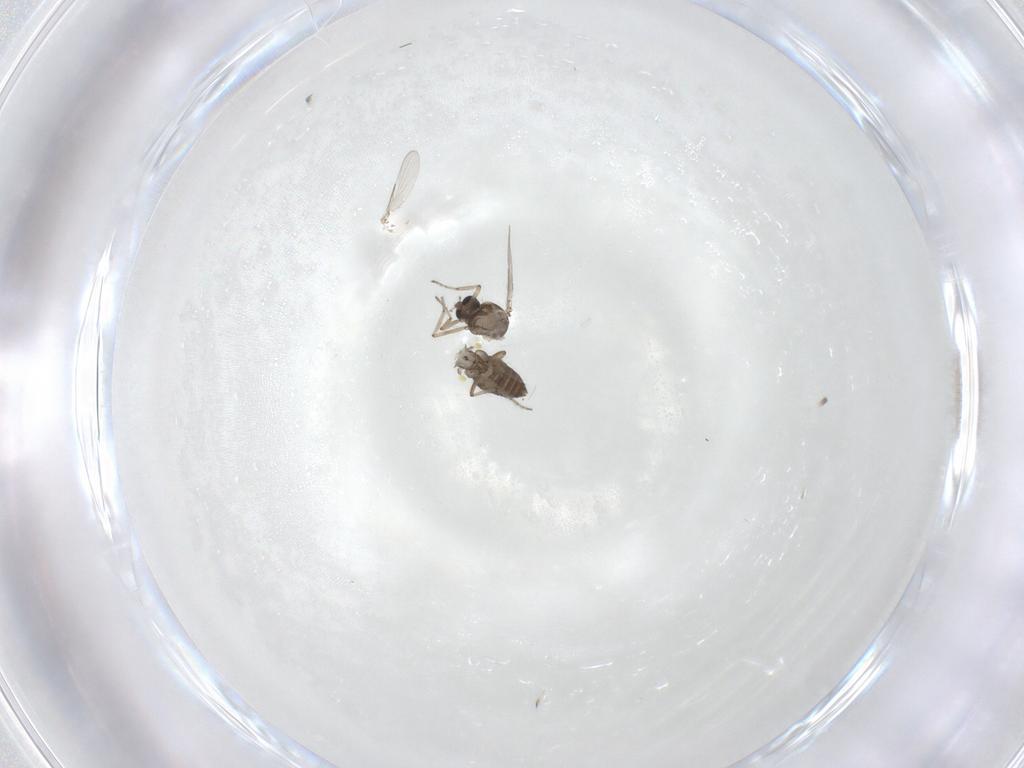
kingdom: Animalia
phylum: Arthropoda
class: Insecta
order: Diptera
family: Ceratopogonidae
